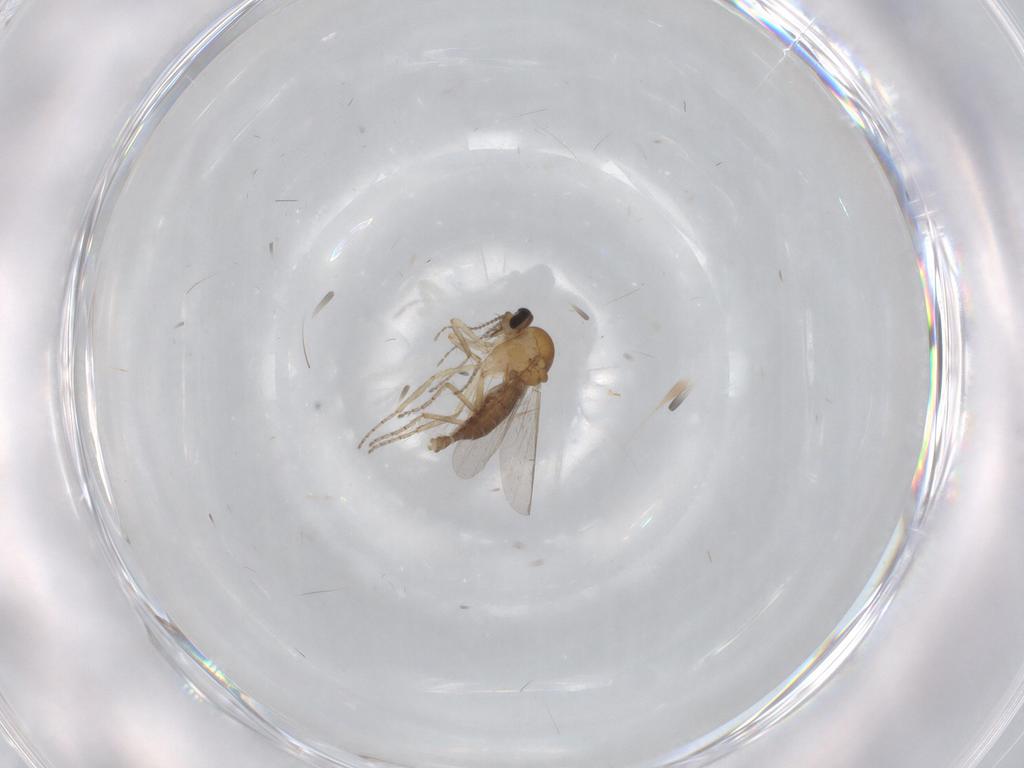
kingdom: Animalia
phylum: Arthropoda
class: Insecta
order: Diptera
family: Ceratopogonidae
